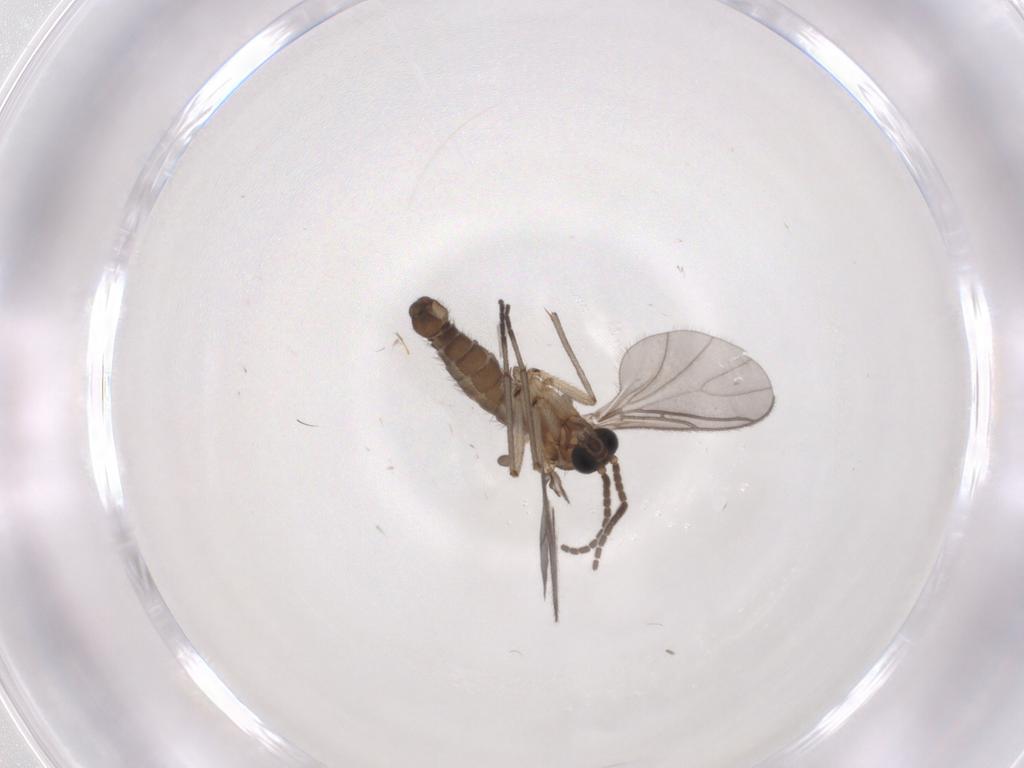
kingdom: Animalia
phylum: Arthropoda
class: Insecta
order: Diptera
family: Sciaridae
